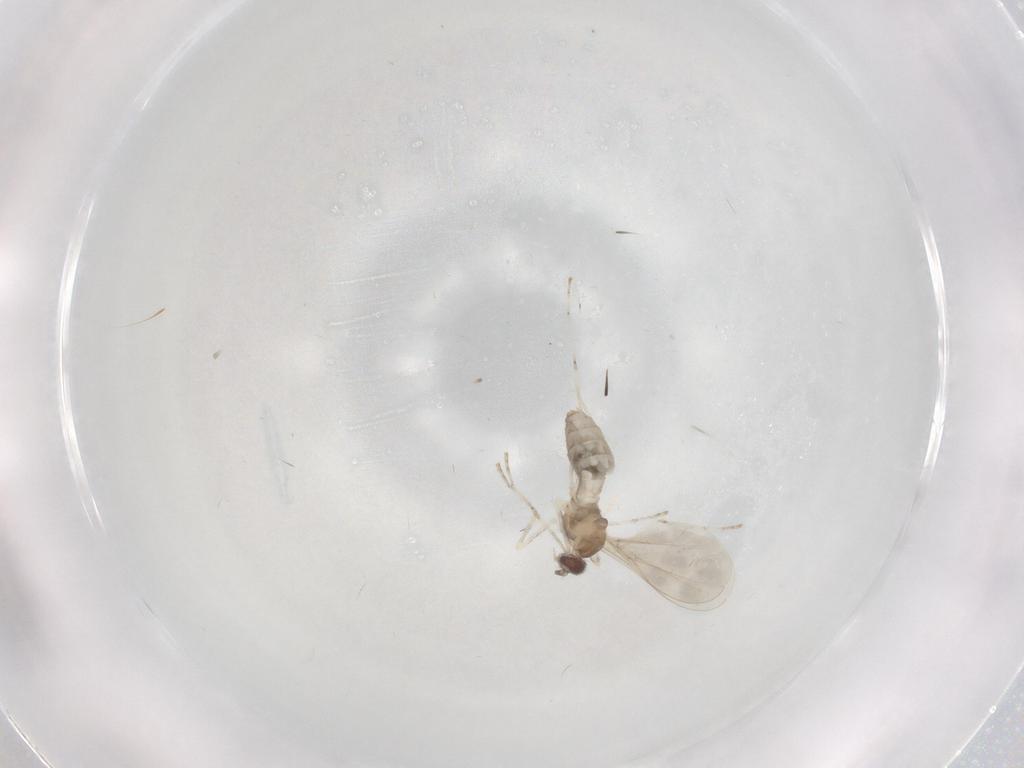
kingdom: Animalia
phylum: Arthropoda
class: Insecta
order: Diptera
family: Cecidomyiidae
